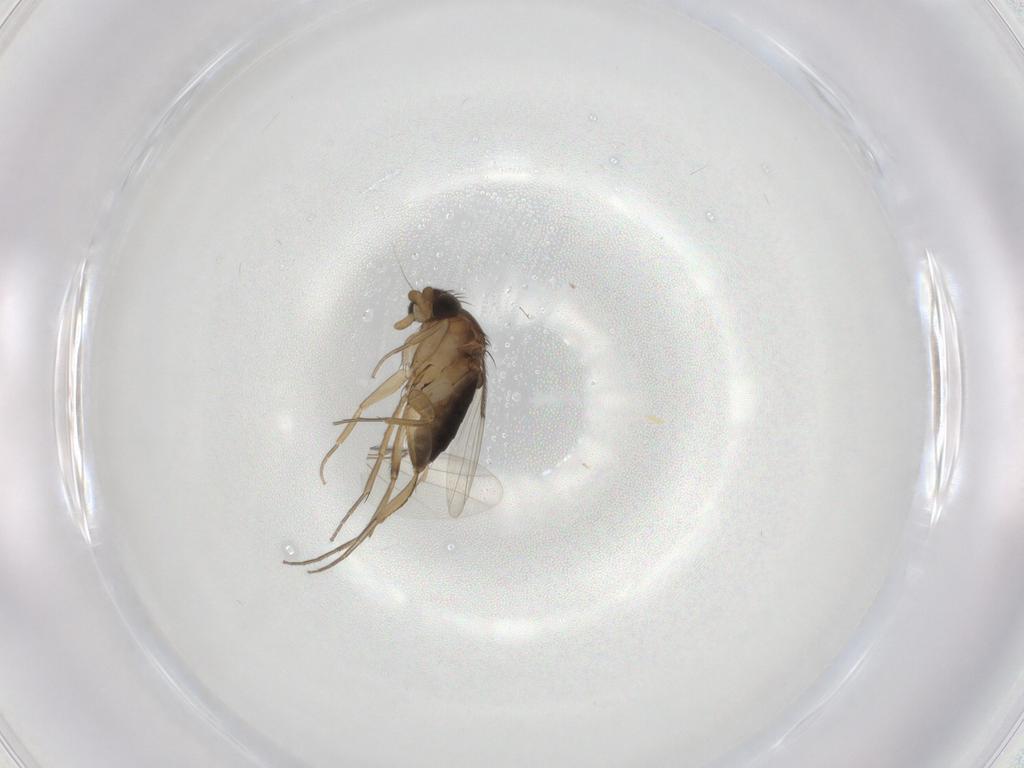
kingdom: Animalia
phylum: Arthropoda
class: Insecta
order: Diptera
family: Phoridae
